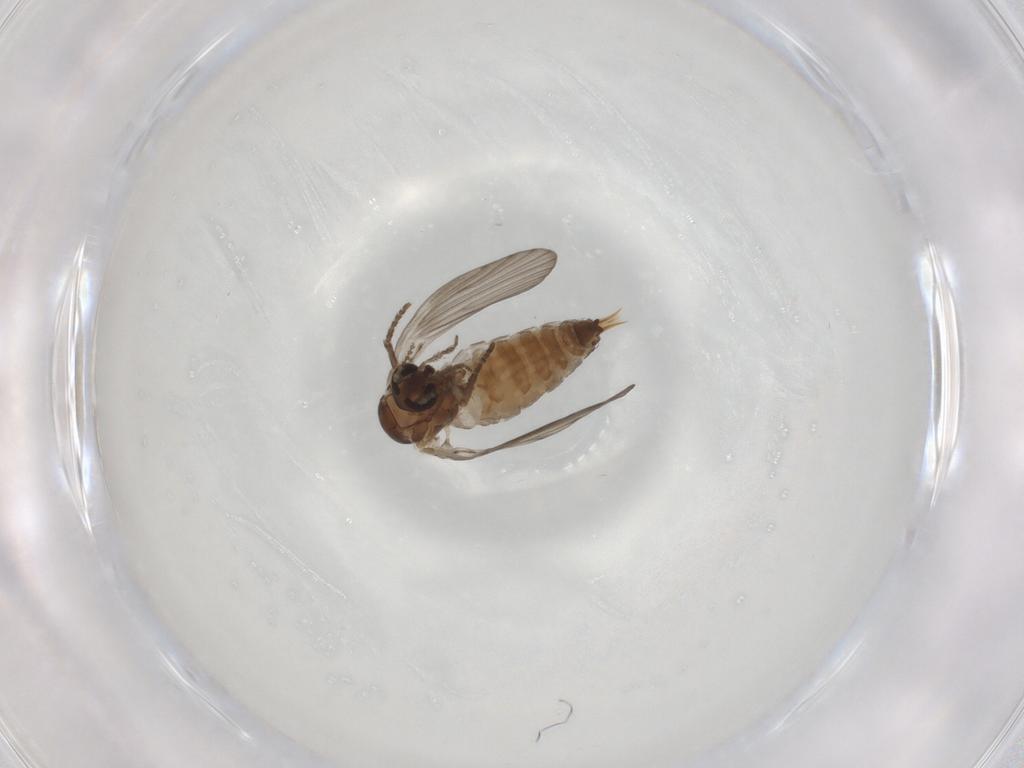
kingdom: Animalia
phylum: Arthropoda
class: Insecta
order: Diptera
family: Psychodidae
